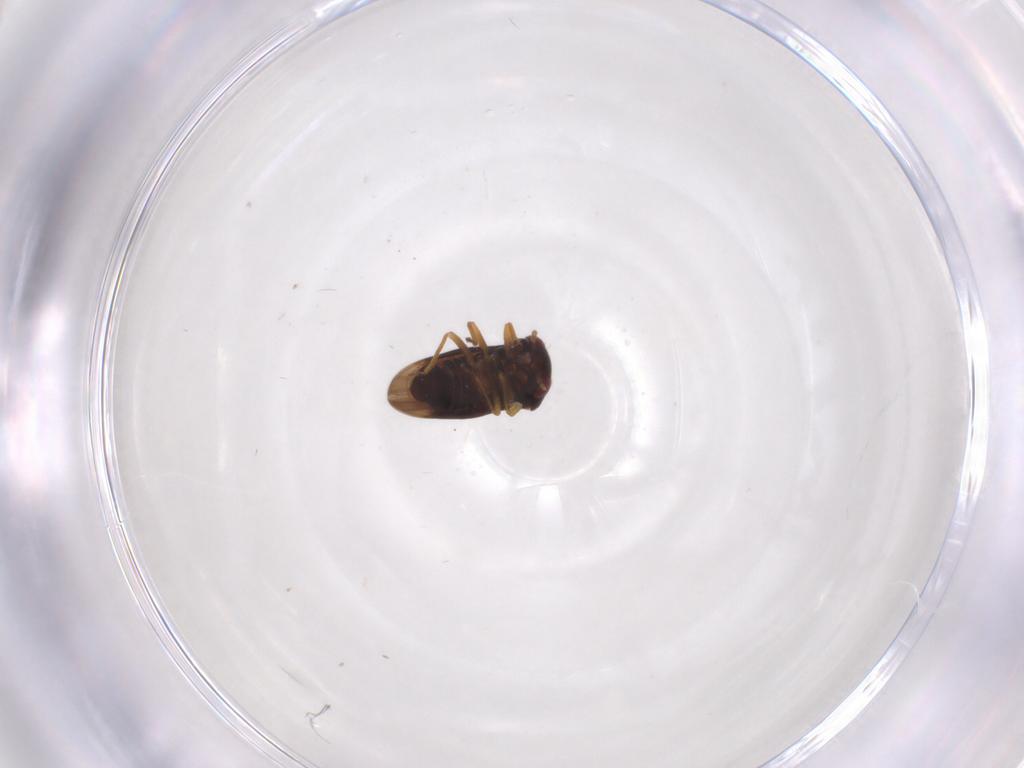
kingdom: Animalia
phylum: Arthropoda
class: Insecta
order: Hemiptera
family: Schizopteridae
